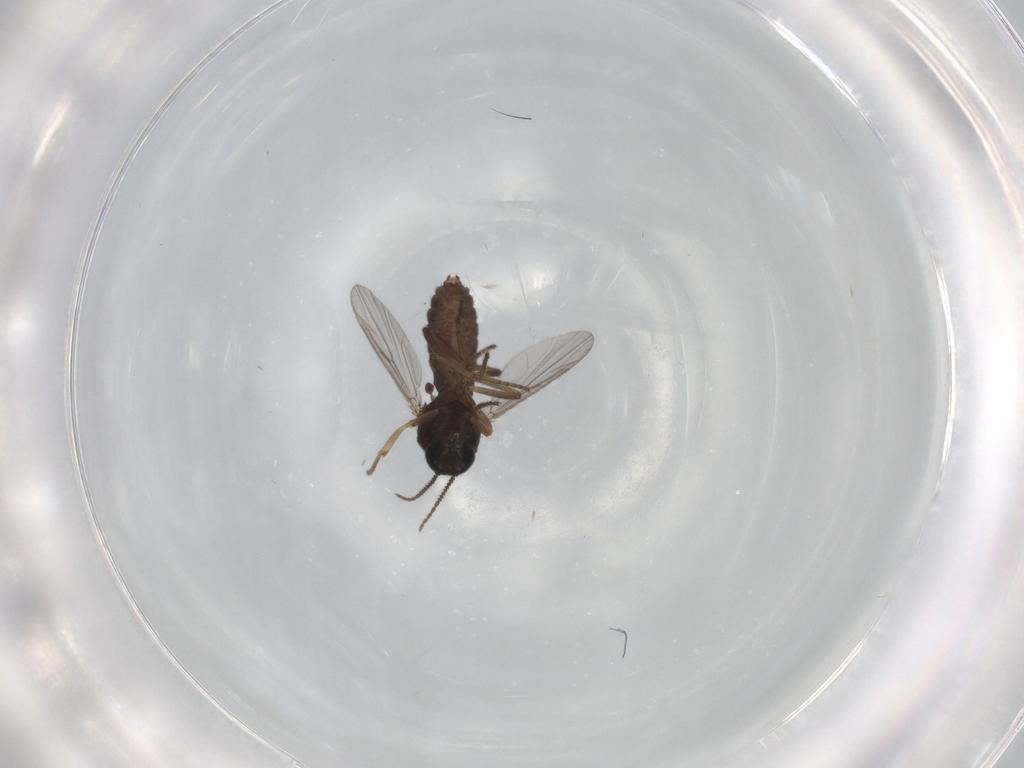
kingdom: Animalia
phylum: Arthropoda
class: Insecta
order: Diptera
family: Ceratopogonidae
